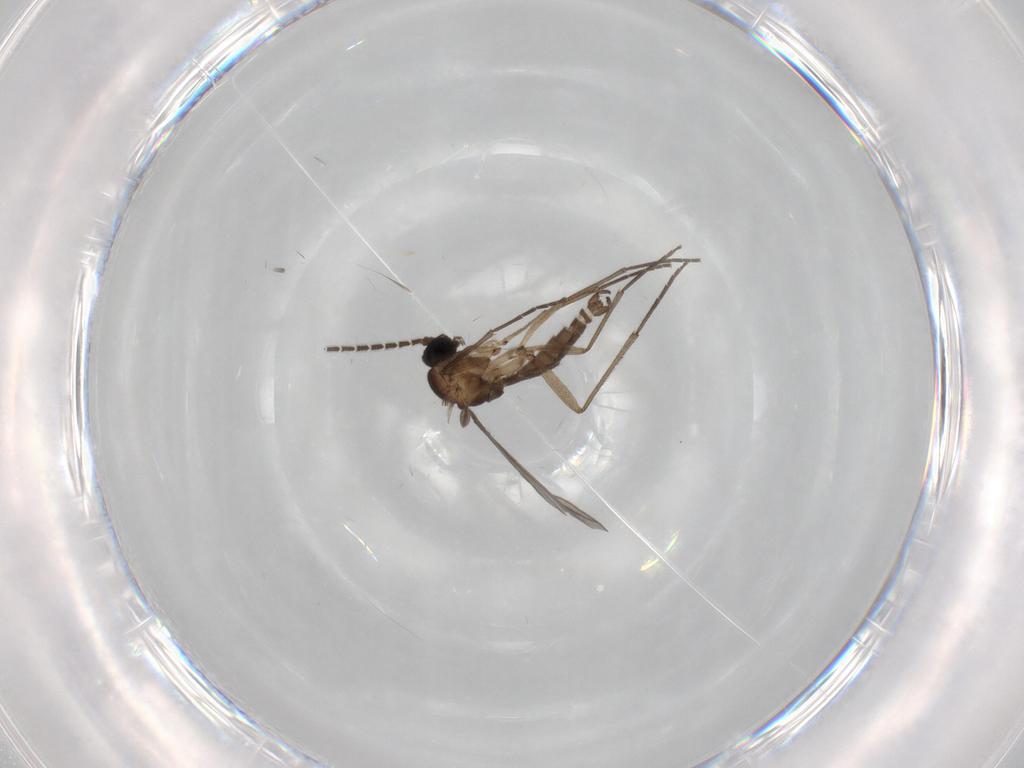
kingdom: Animalia
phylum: Arthropoda
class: Insecta
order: Diptera
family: Sciaridae
